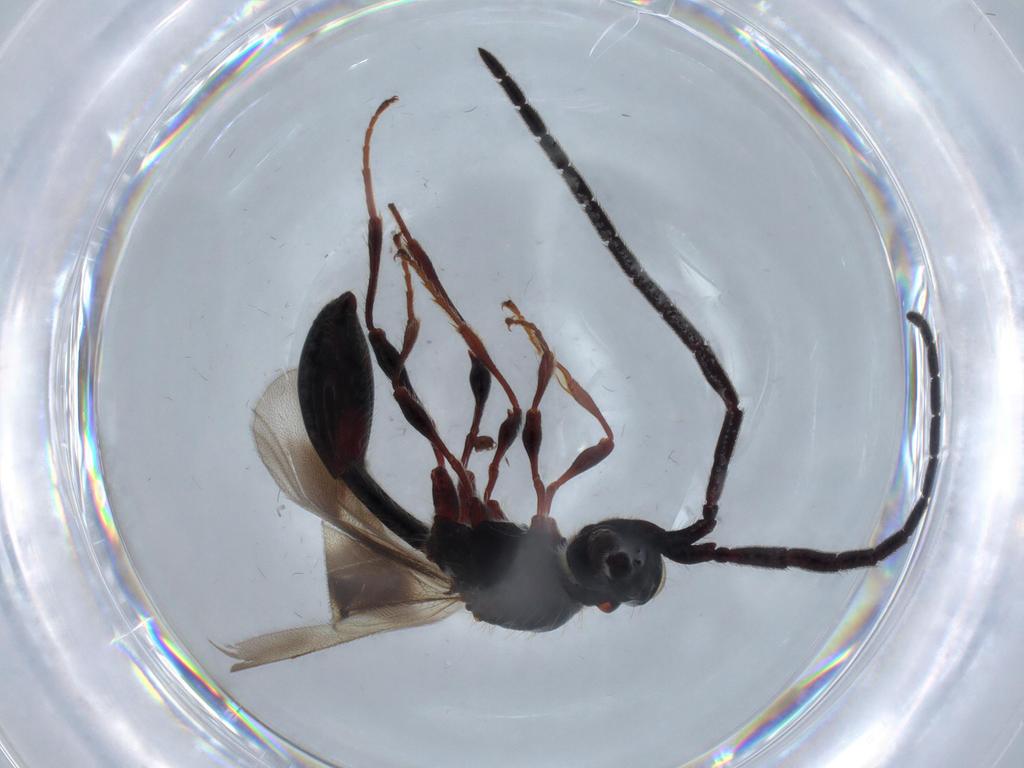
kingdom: Animalia
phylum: Arthropoda
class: Insecta
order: Hymenoptera
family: Diapriidae
